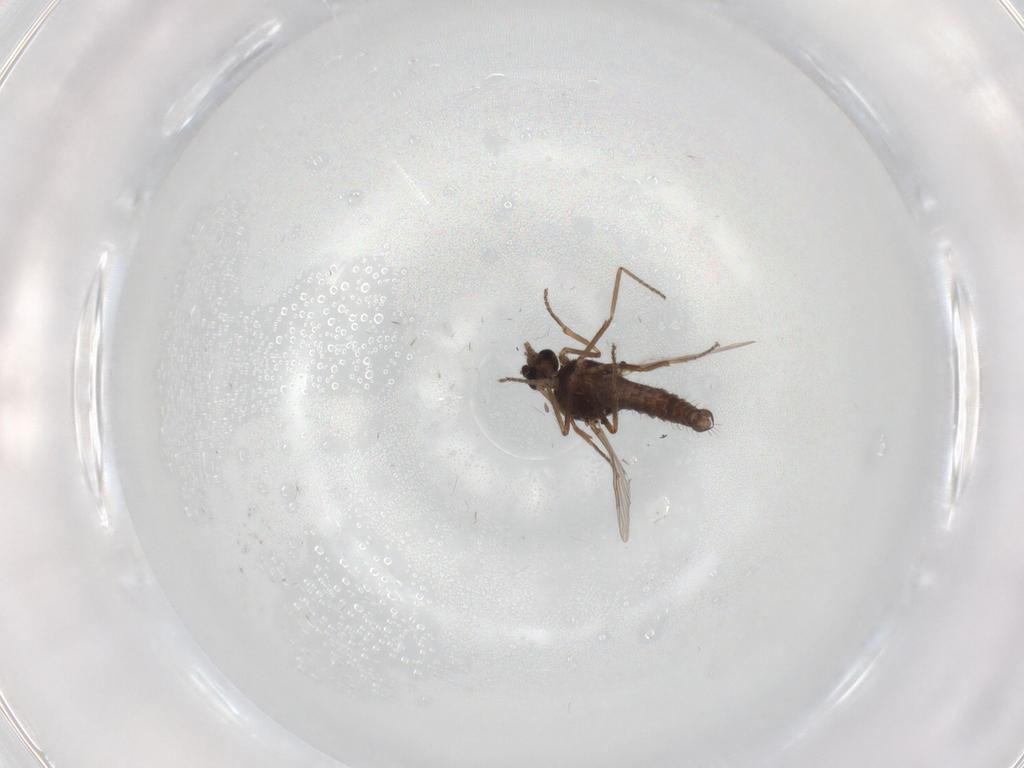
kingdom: Animalia
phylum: Arthropoda
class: Insecta
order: Diptera
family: Ceratopogonidae
